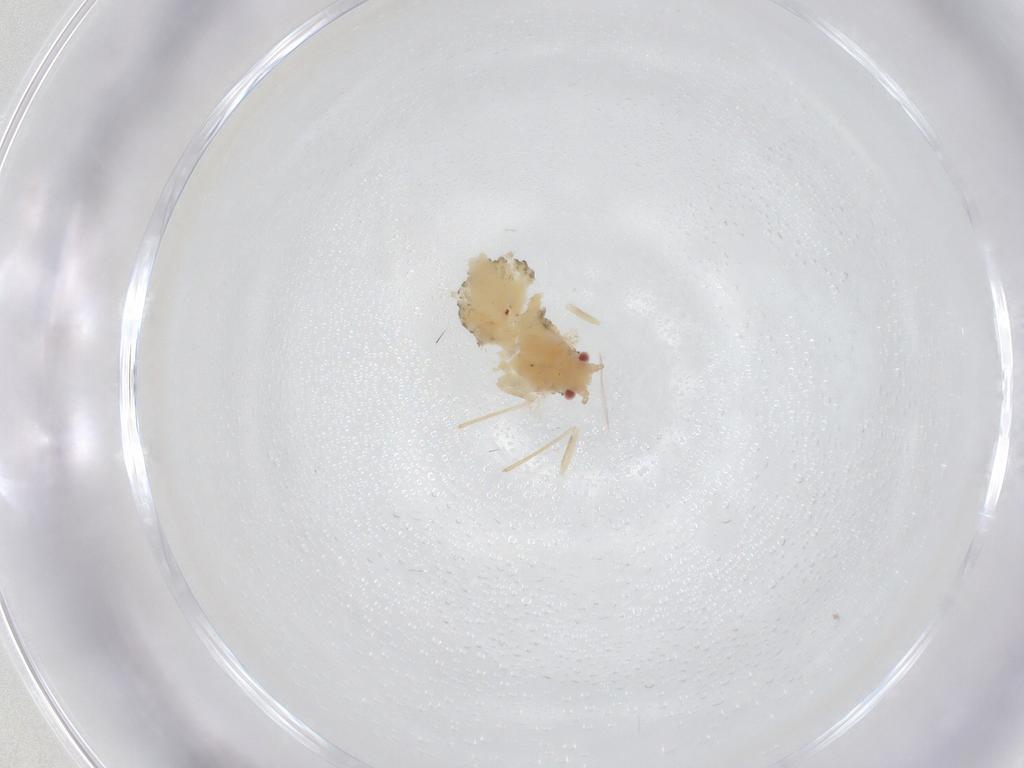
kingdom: Animalia
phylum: Arthropoda
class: Insecta
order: Hemiptera
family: Aphididae
